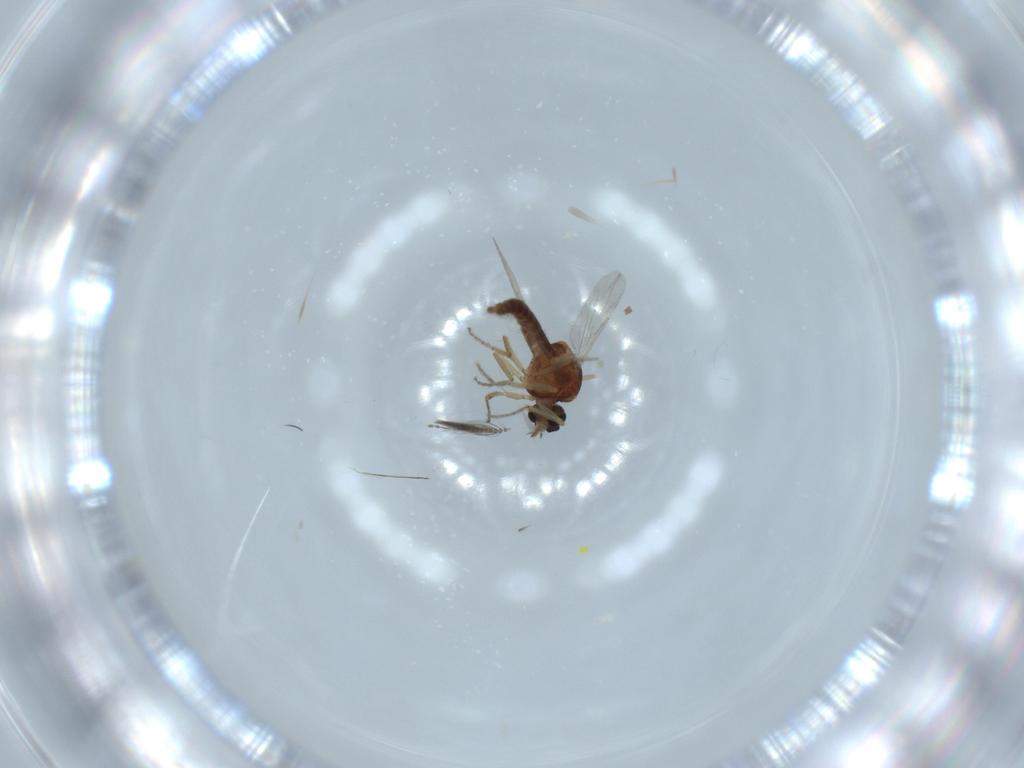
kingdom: Animalia
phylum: Arthropoda
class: Insecta
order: Diptera
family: Ceratopogonidae
